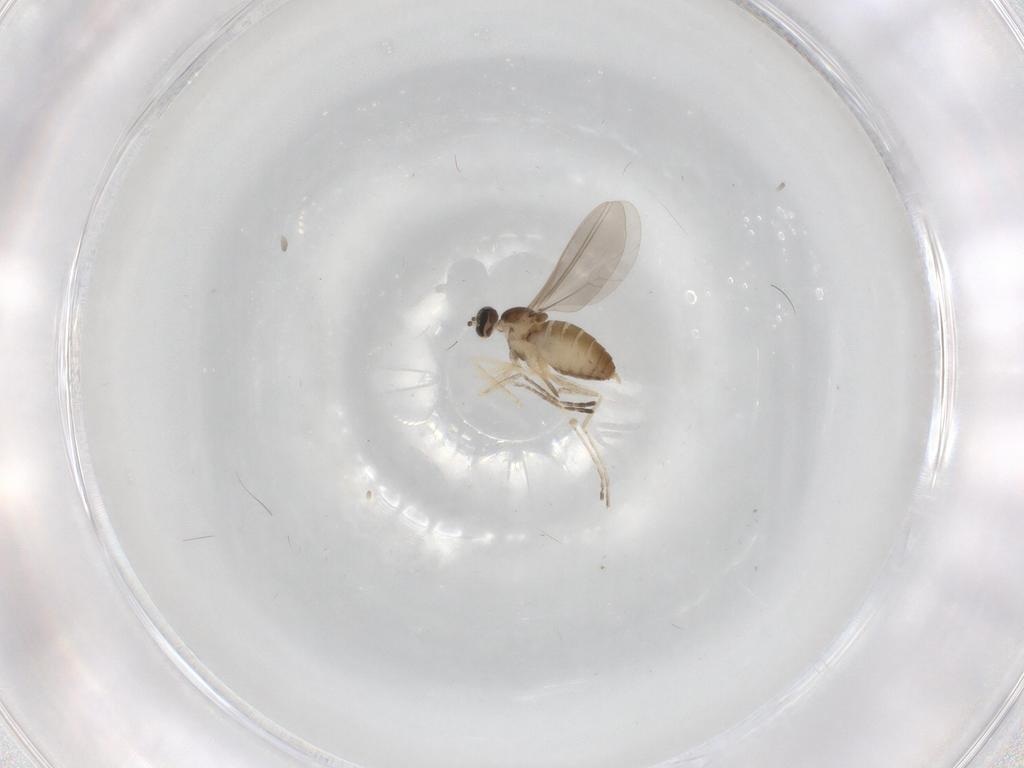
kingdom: Animalia
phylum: Arthropoda
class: Insecta
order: Diptera
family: Cecidomyiidae
